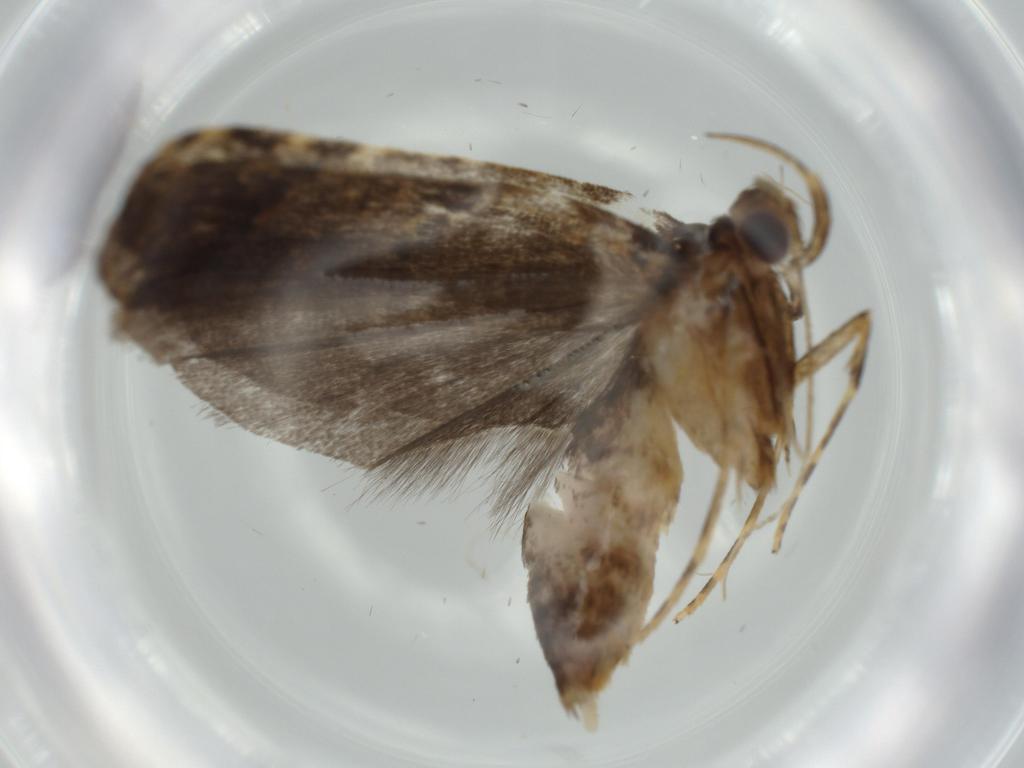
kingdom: Animalia
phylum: Arthropoda
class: Insecta
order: Lepidoptera
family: Autostichidae
